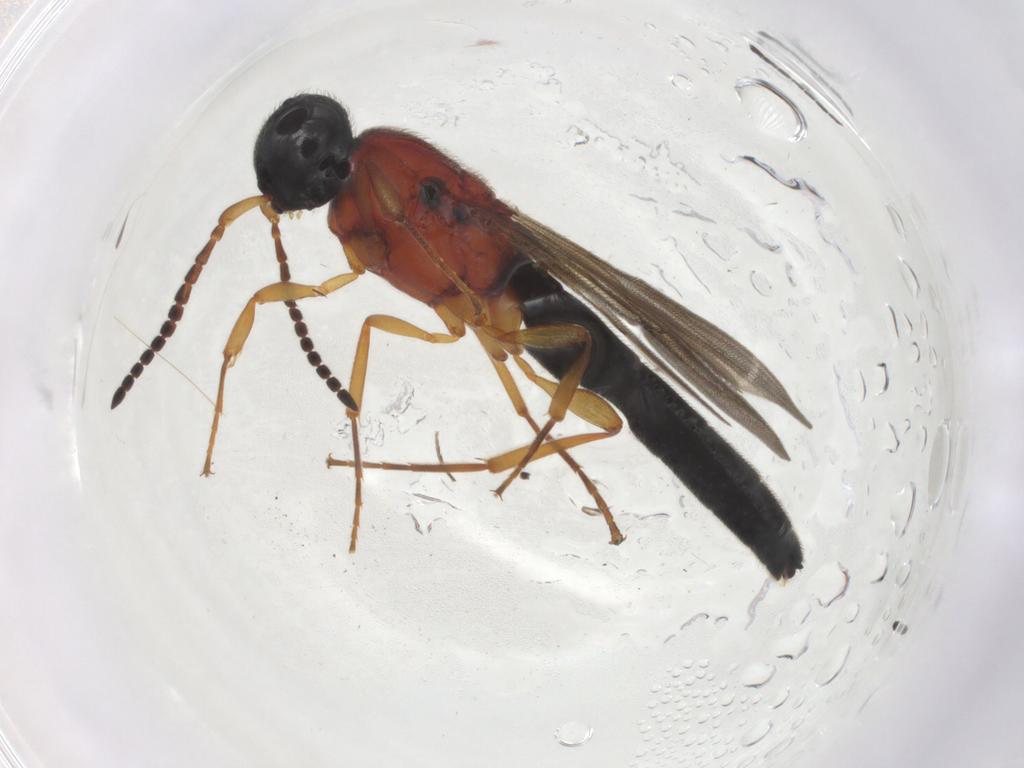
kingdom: Animalia
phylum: Arthropoda
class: Insecta
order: Hymenoptera
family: Scelionidae
